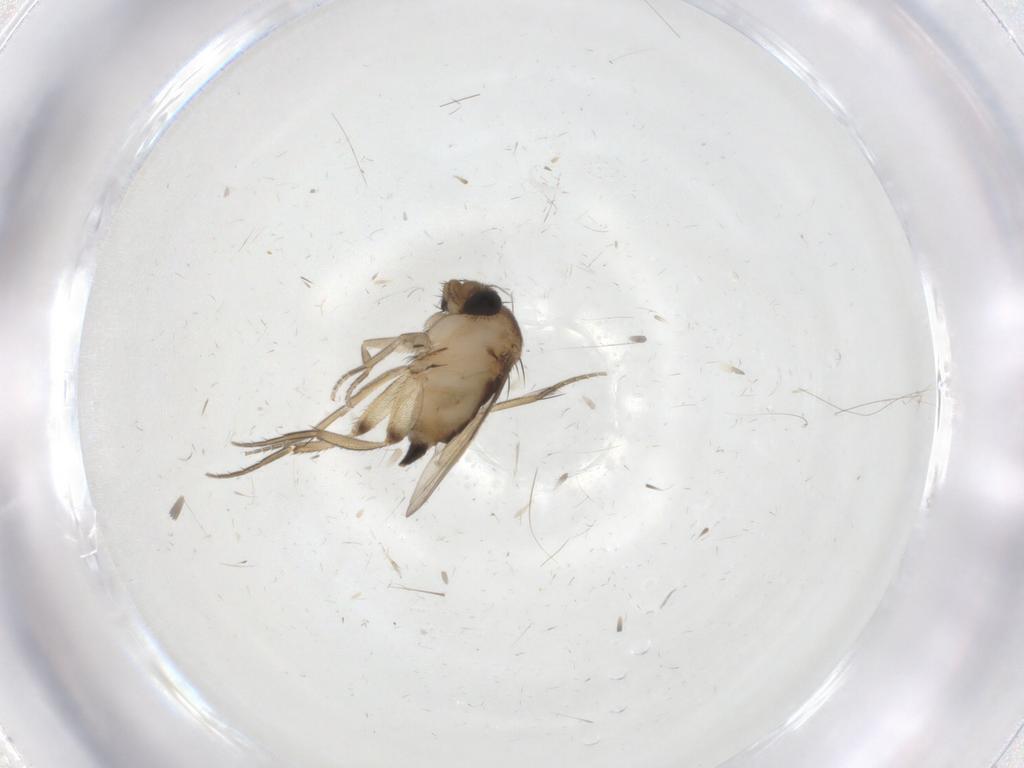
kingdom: Animalia
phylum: Arthropoda
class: Insecta
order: Diptera
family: Phoridae
